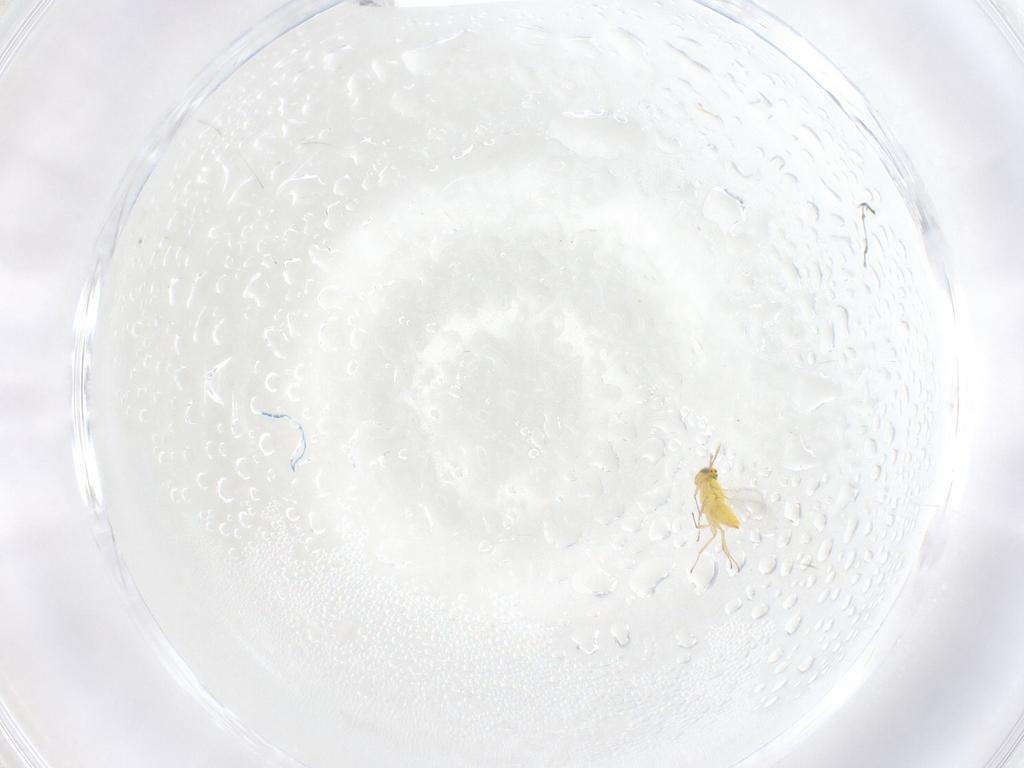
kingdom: Animalia
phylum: Arthropoda
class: Insecta
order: Hymenoptera
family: Aphelinidae
